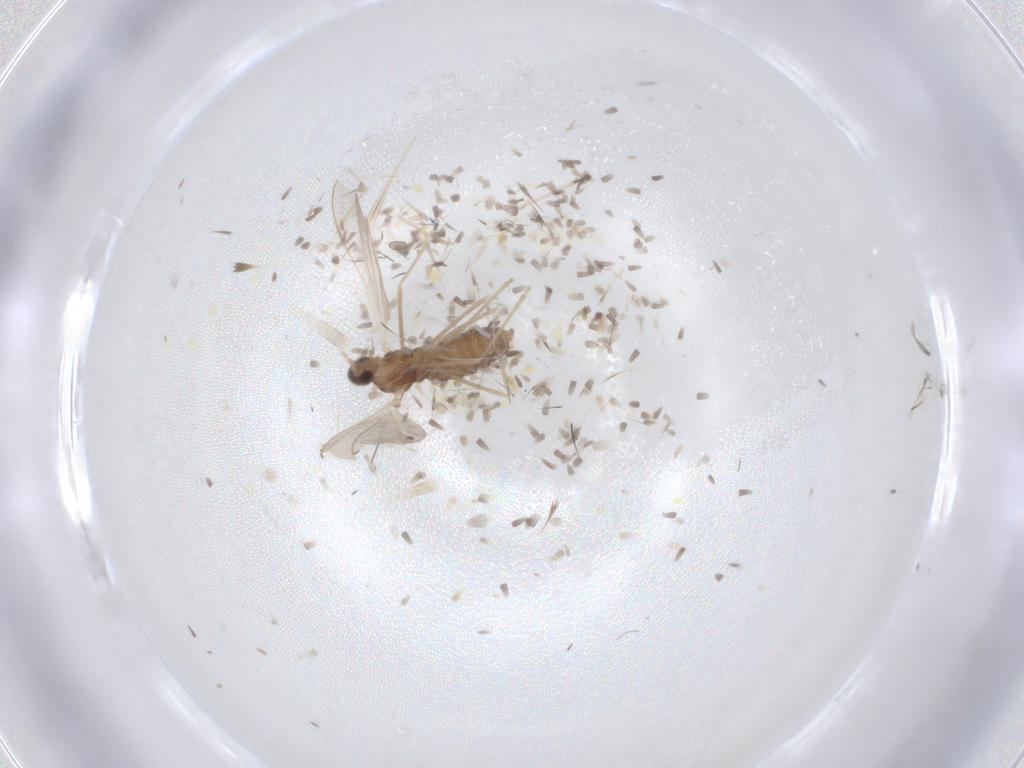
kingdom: Animalia
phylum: Arthropoda
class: Insecta
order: Diptera
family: Cecidomyiidae
